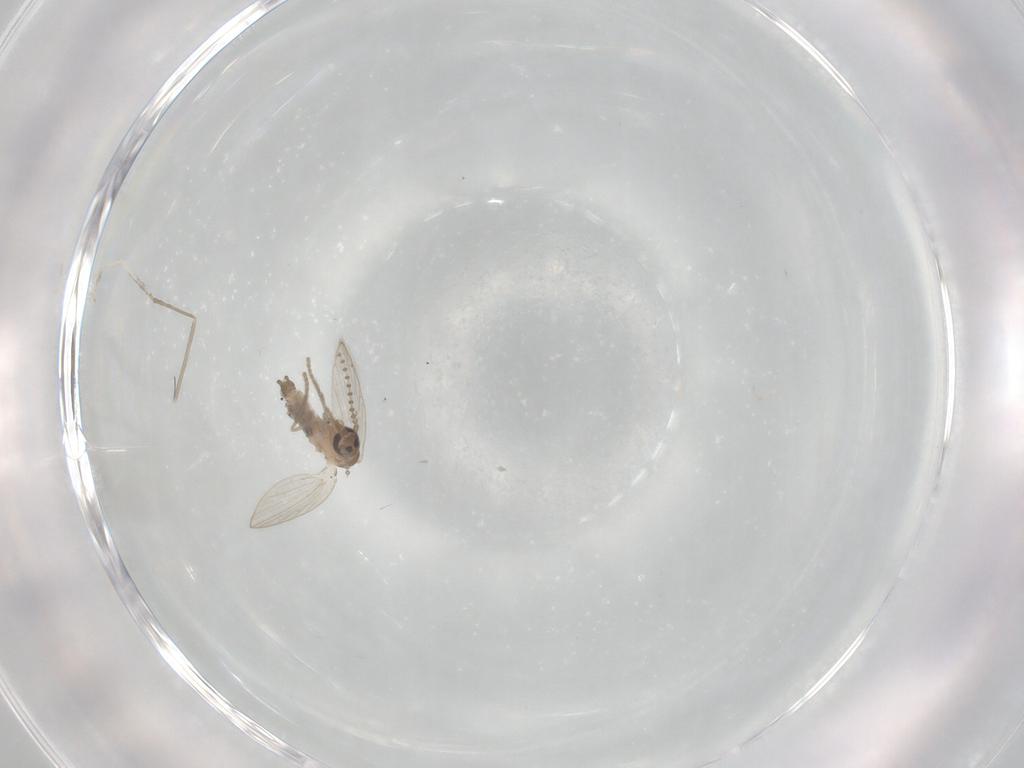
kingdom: Animalia
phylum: Arthropoda
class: Insecta
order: Diptera
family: Psychodidae
